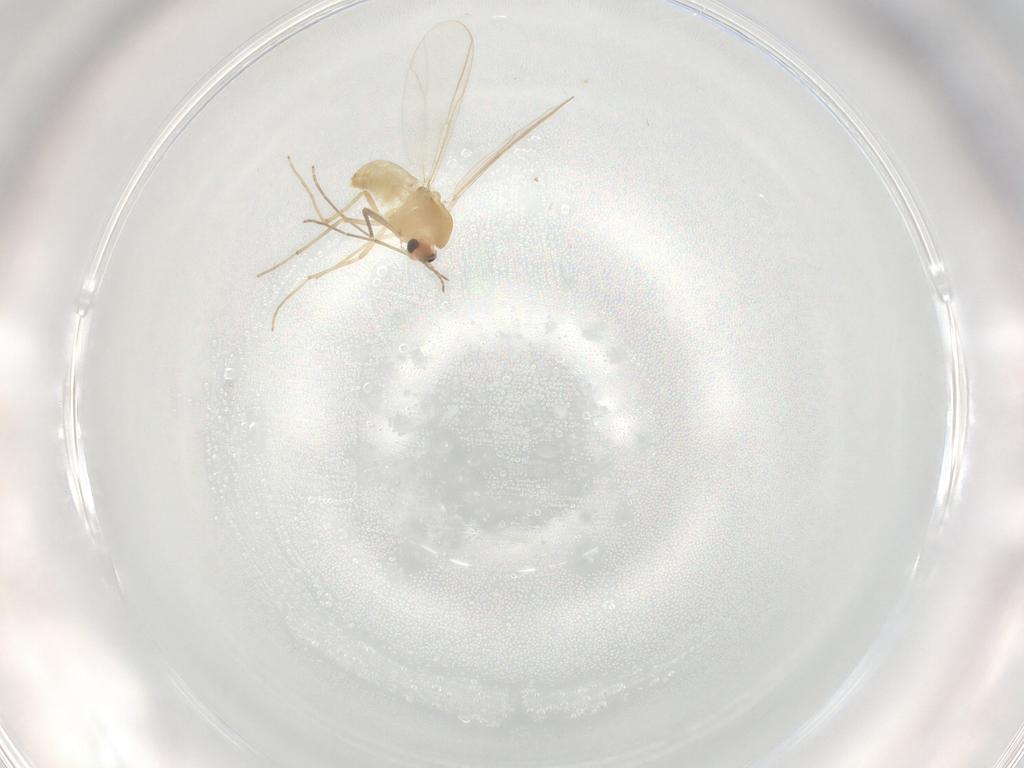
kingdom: Animalia
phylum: Arthropoda
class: Insecta
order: Diptera
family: Chironomidae
